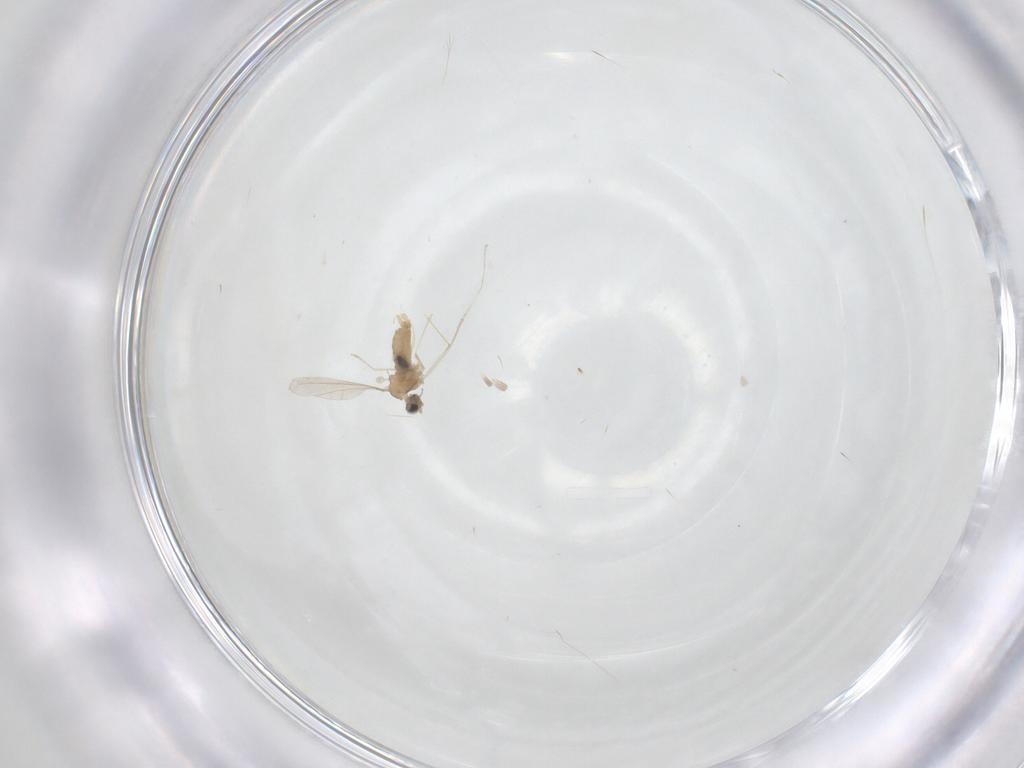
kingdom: Animalia
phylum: Arthropoda
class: Insecta
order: Diptera
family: Cecidomyiidae
